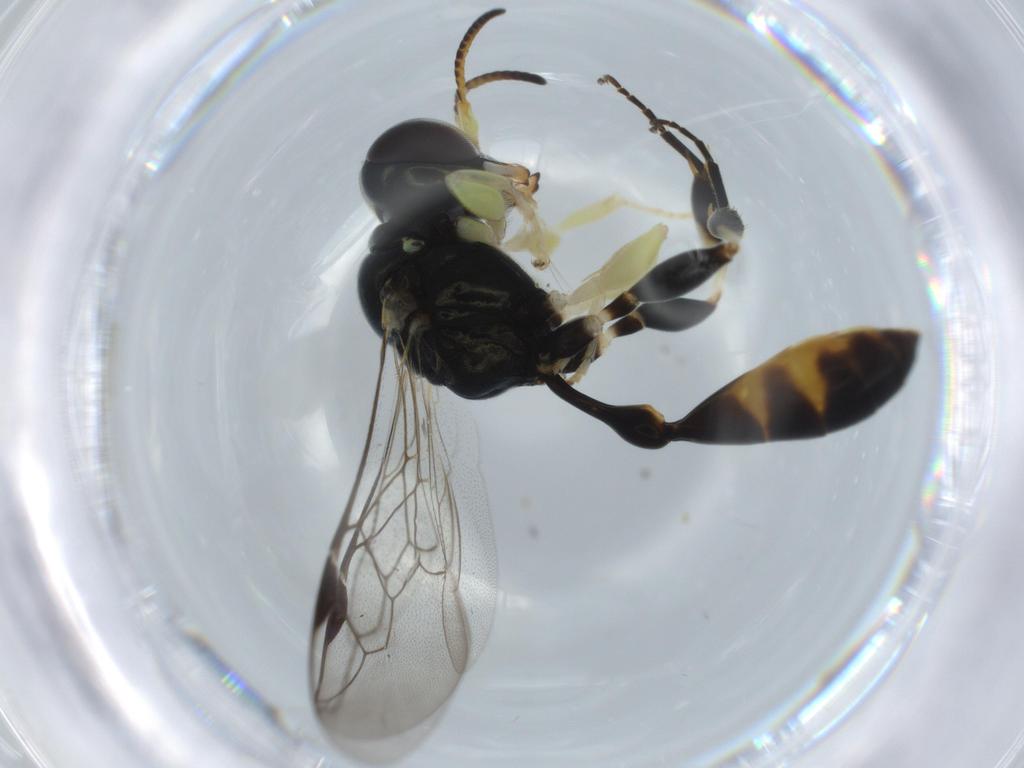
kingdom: Animalia
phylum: Arthropoda
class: Insecta
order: Hymenoptera
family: Crabronidae
